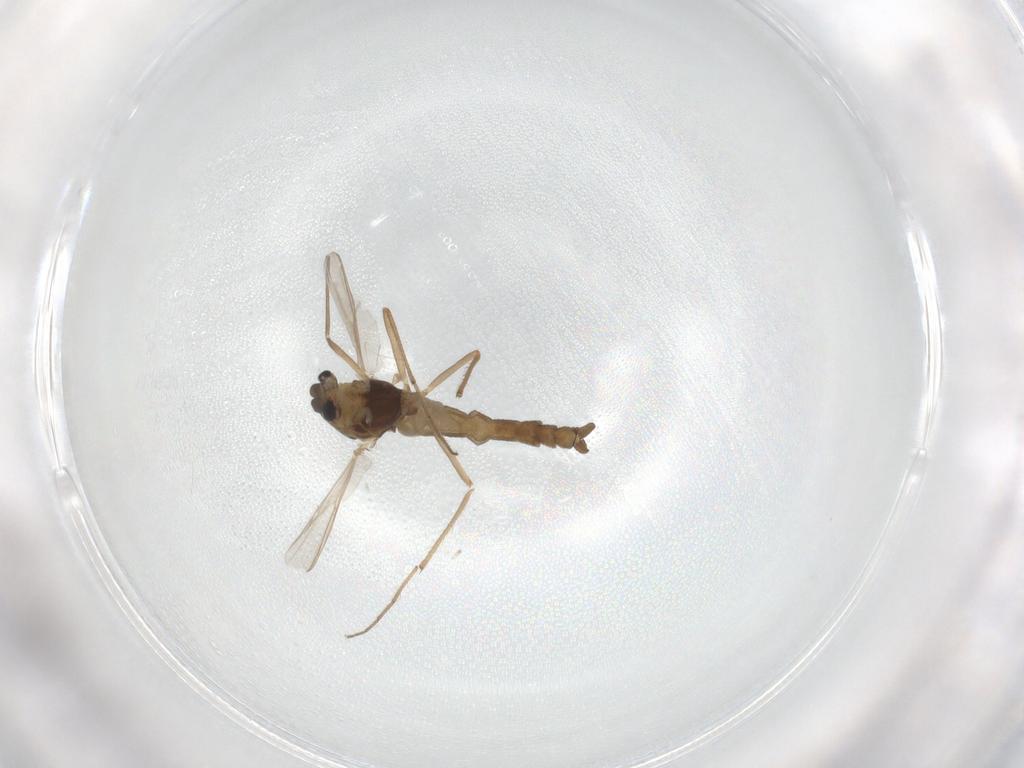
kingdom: Animalia
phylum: Arthropoda
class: Insecta
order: Diptera
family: Chironomidae
